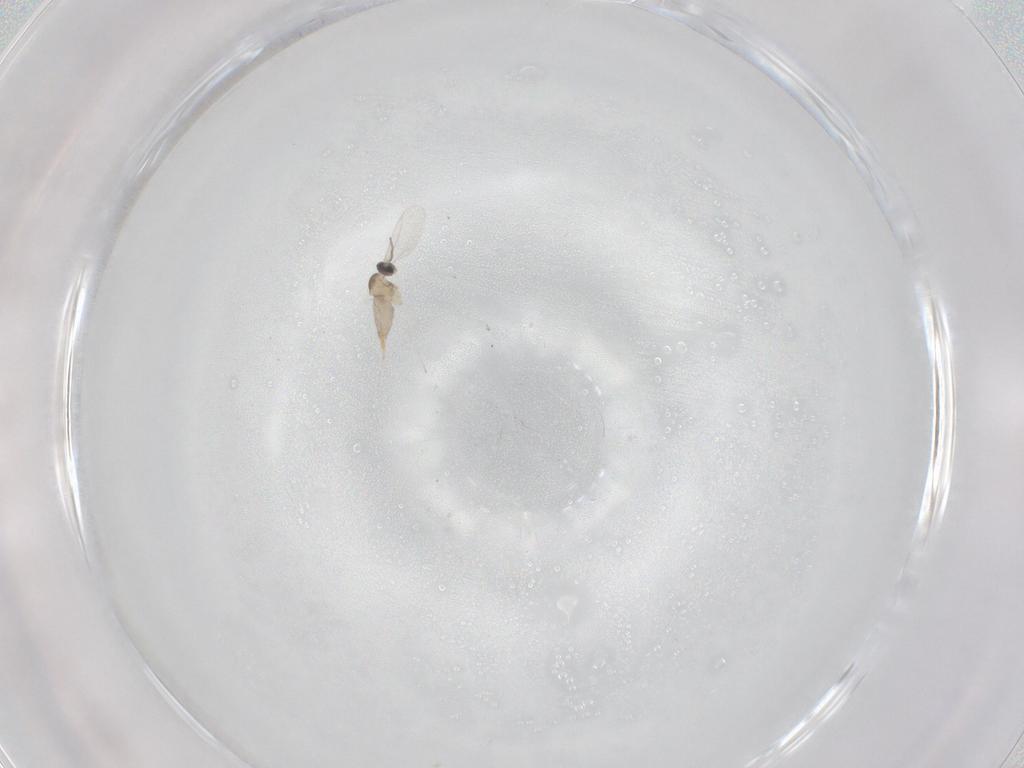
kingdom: Animalia
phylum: Arthropoda
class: Insecta
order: Diptera
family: Cecidomyiidae
